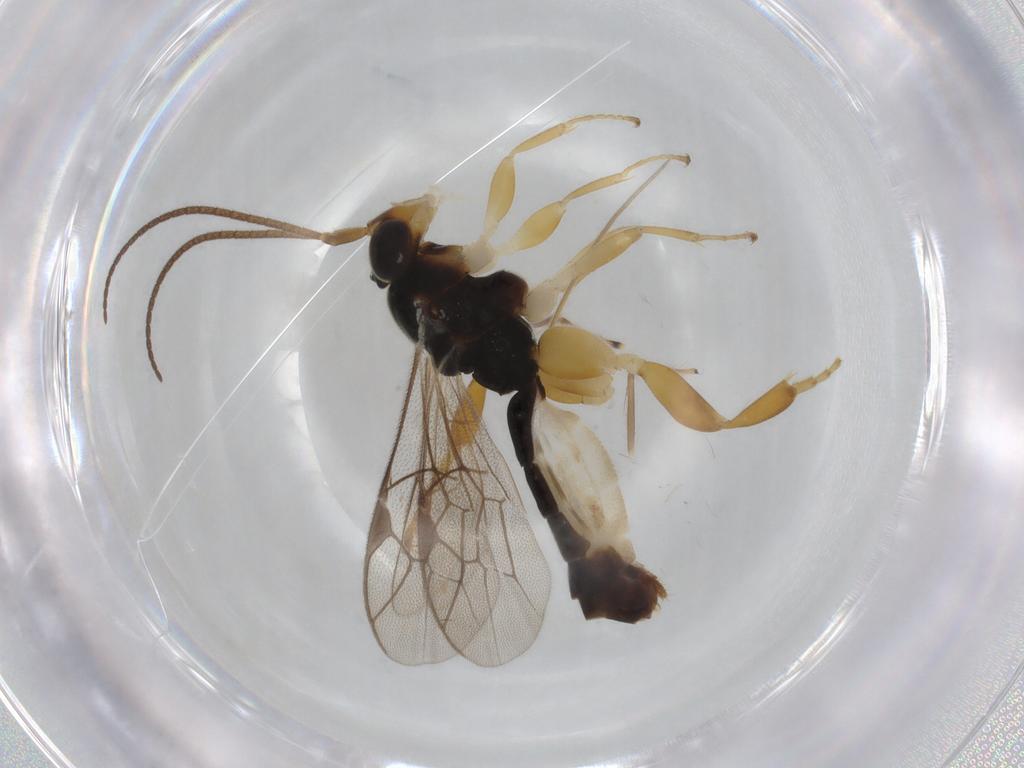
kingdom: Animalia
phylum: Arthropoda
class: Insecta
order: Hymenoptera
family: Ichneumonidae
